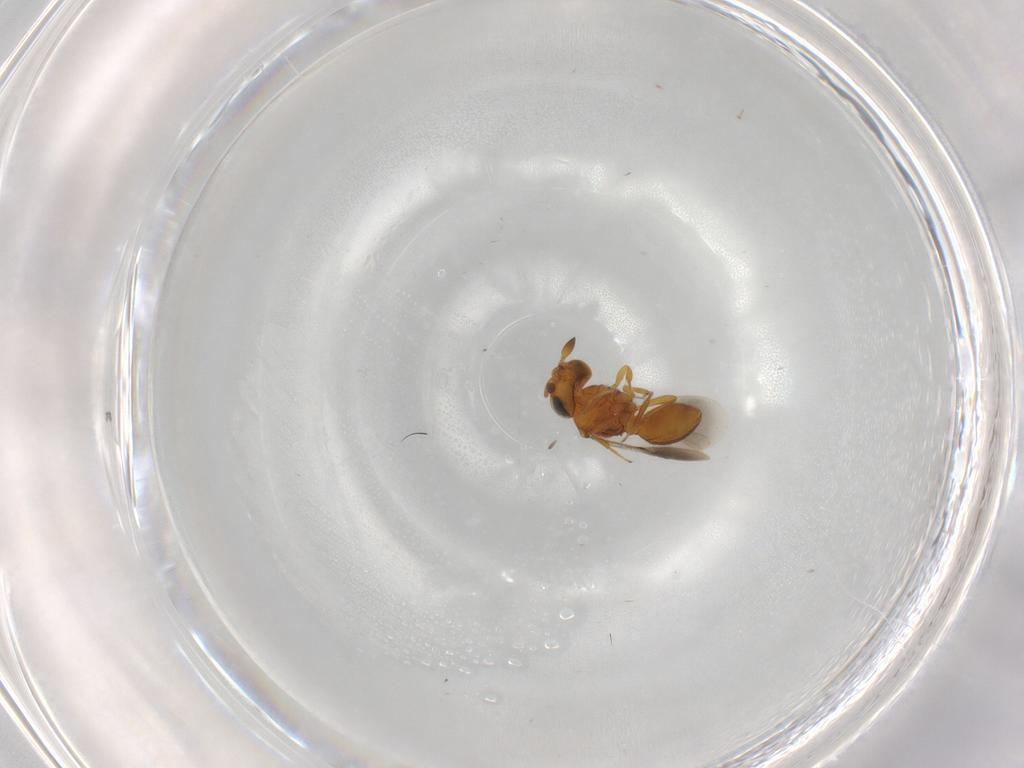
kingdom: Animalia
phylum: Arthropoda
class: Insecta
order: Hymenoptera
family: Scelionidae
